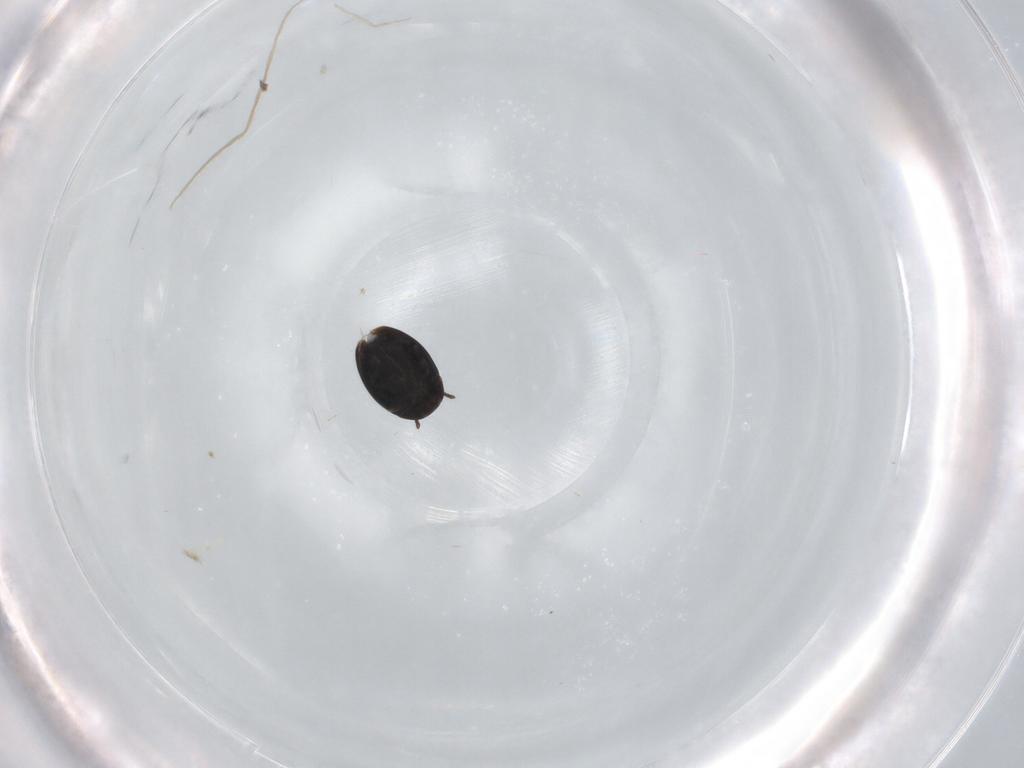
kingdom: Animalia
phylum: Arthropoda
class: Insecta
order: Coleoptera
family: Corylophidae
